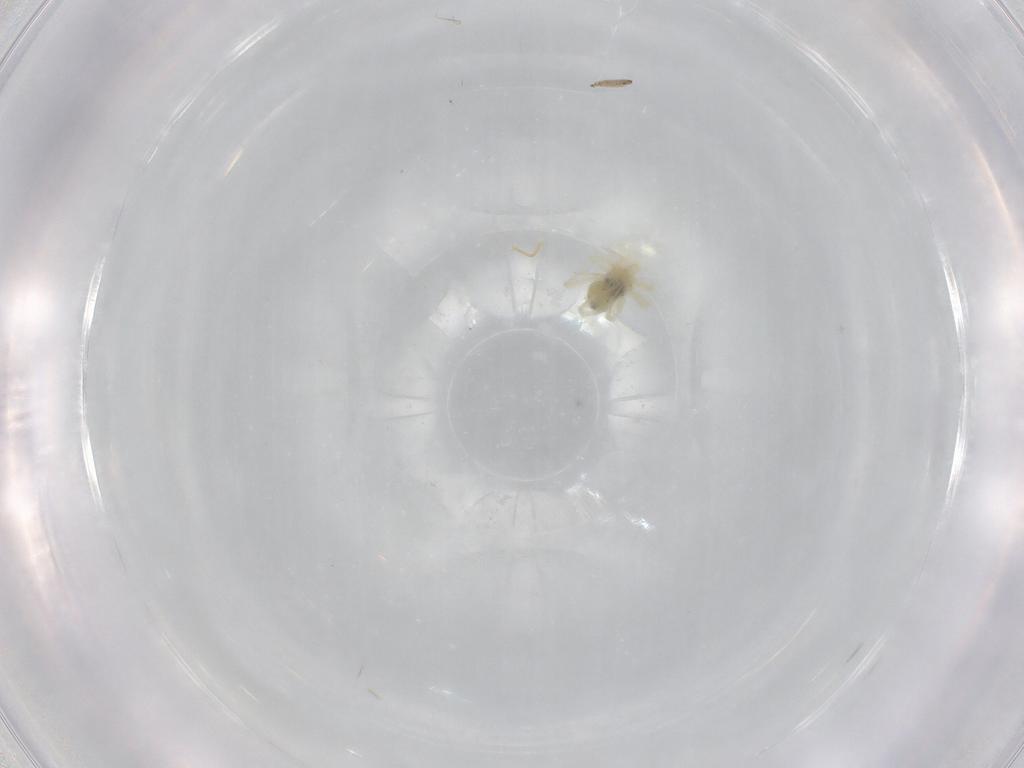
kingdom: Animalia
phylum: Arthropoda
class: Arachnida
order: Trombidiformes
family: Anystidae
